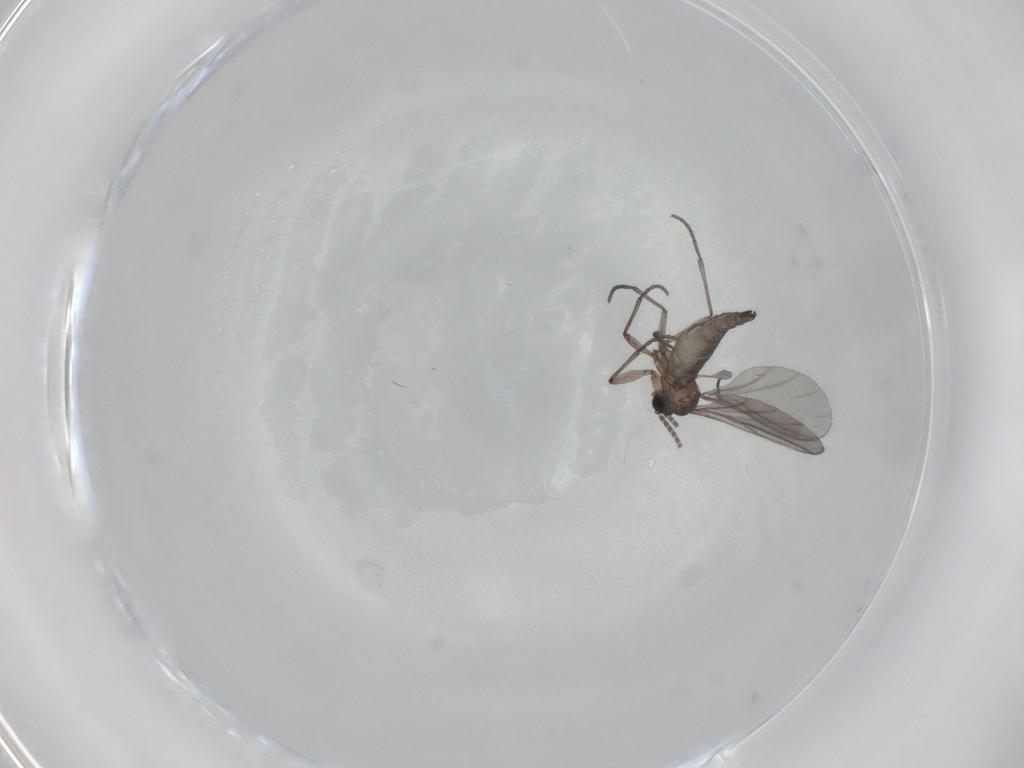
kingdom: Animalia
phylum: Arthropoda
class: Insecta
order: Diptera
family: Sciaridae
